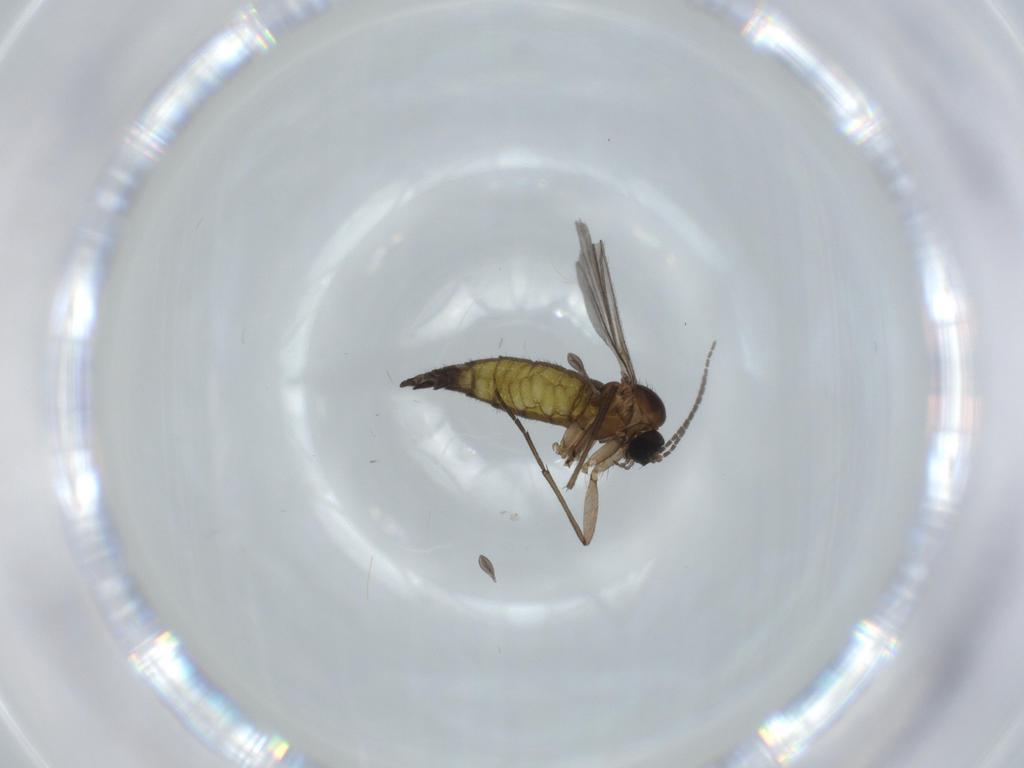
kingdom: Animalia
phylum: Arthropoda
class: Insecta
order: Diptera
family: Sciaridae
